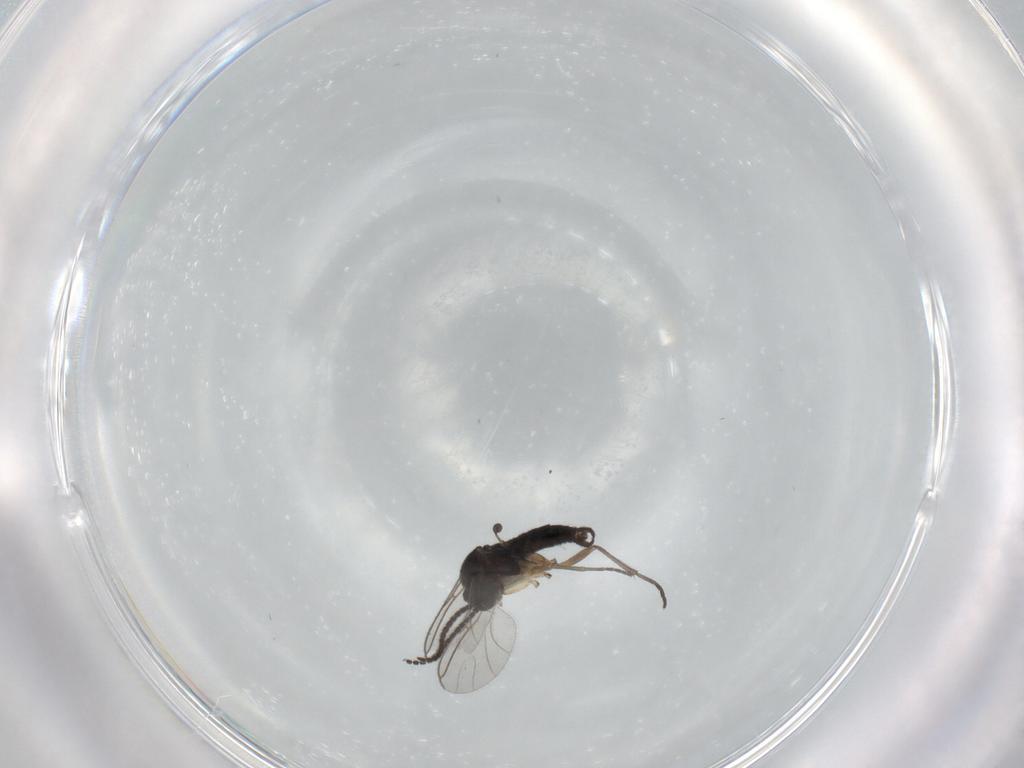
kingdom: Animalia
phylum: Arthropoda
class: Insecta
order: Diptera
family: Sciaridae
